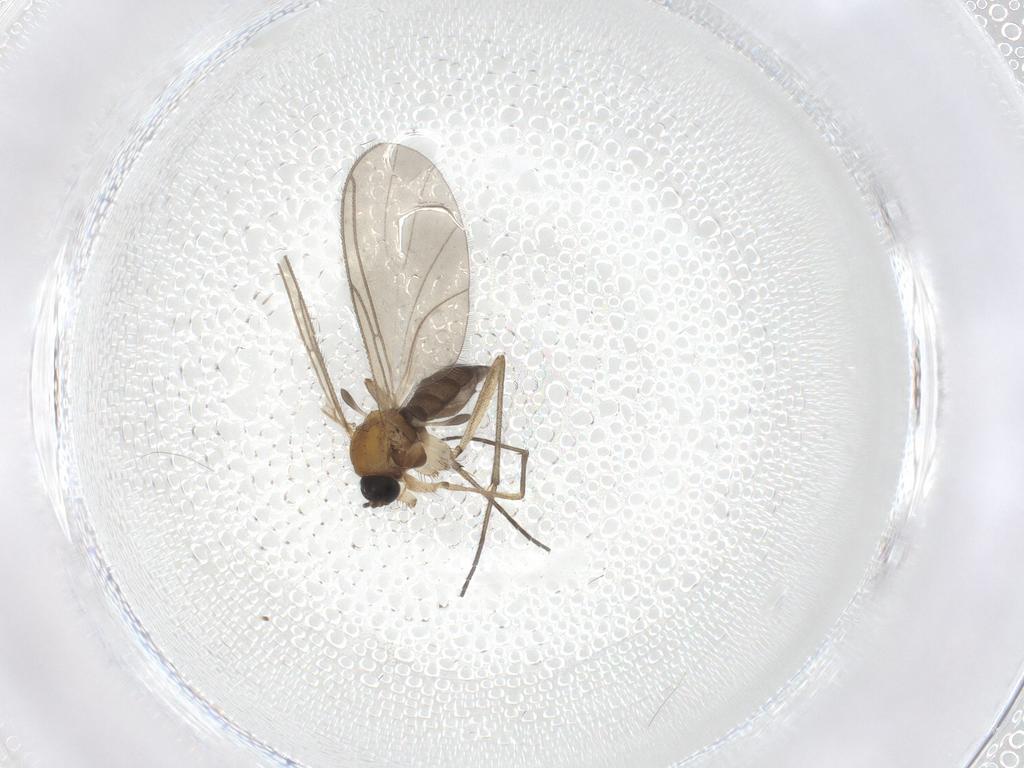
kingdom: Animalia
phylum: Arthropoda
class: Insecta
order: Diptera
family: Sciaridae
